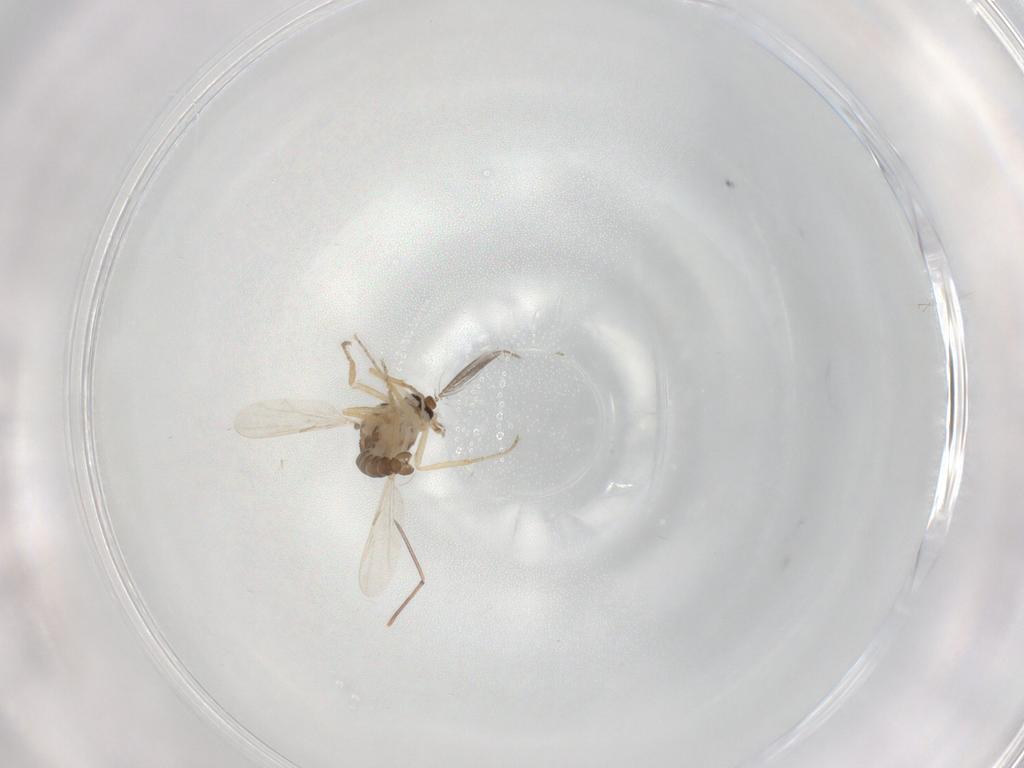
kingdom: Animalia
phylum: Arthropoda
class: Insecta
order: Diptera
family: Ceratopogonidae
